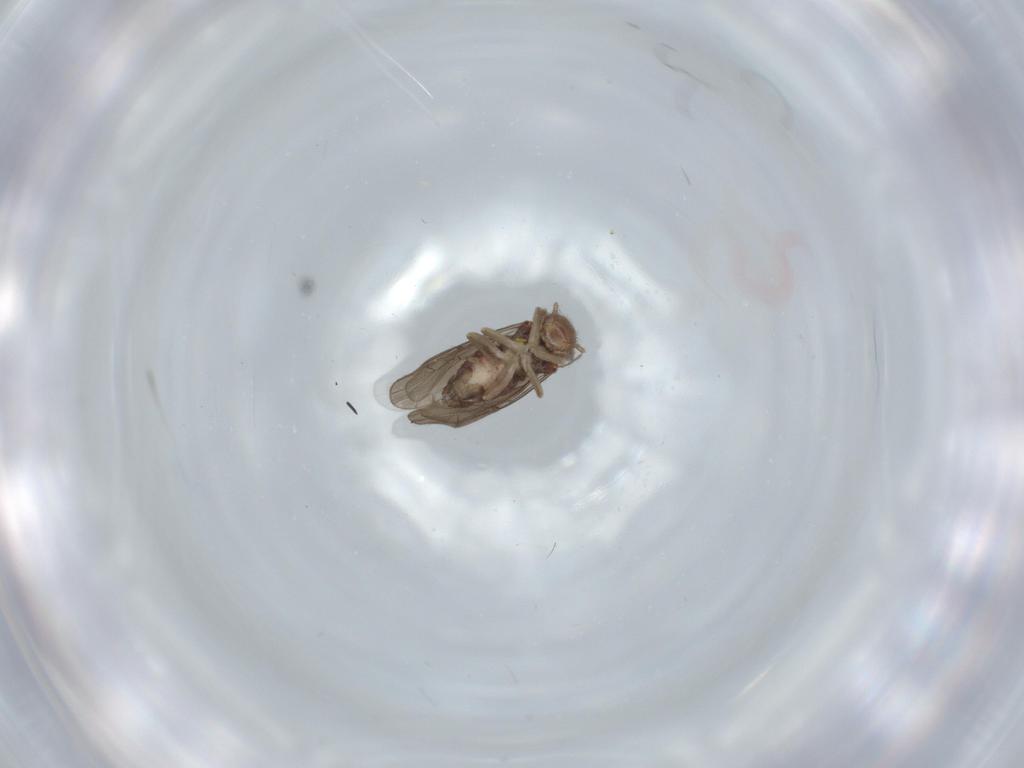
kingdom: Animalia
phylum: Arthropoda
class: Insecta
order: Psocodea
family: Ectopsocidae
